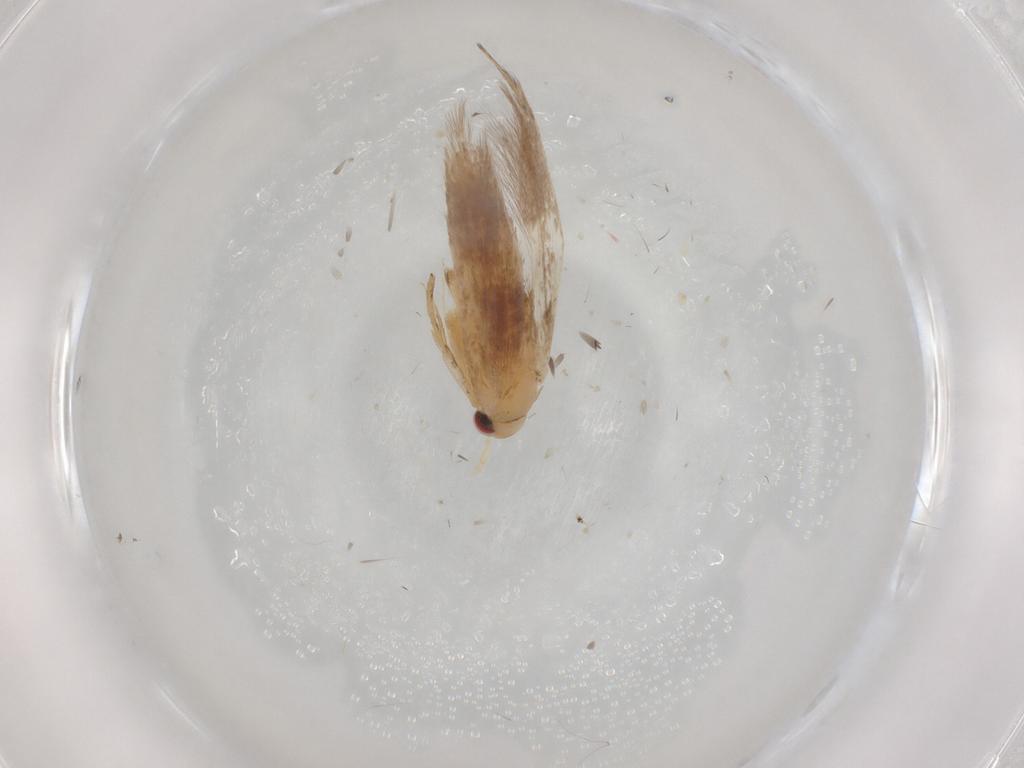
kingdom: Animalia
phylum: Arthropoda
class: Insecta
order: Lepidoptera
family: Cosmopterigidae
